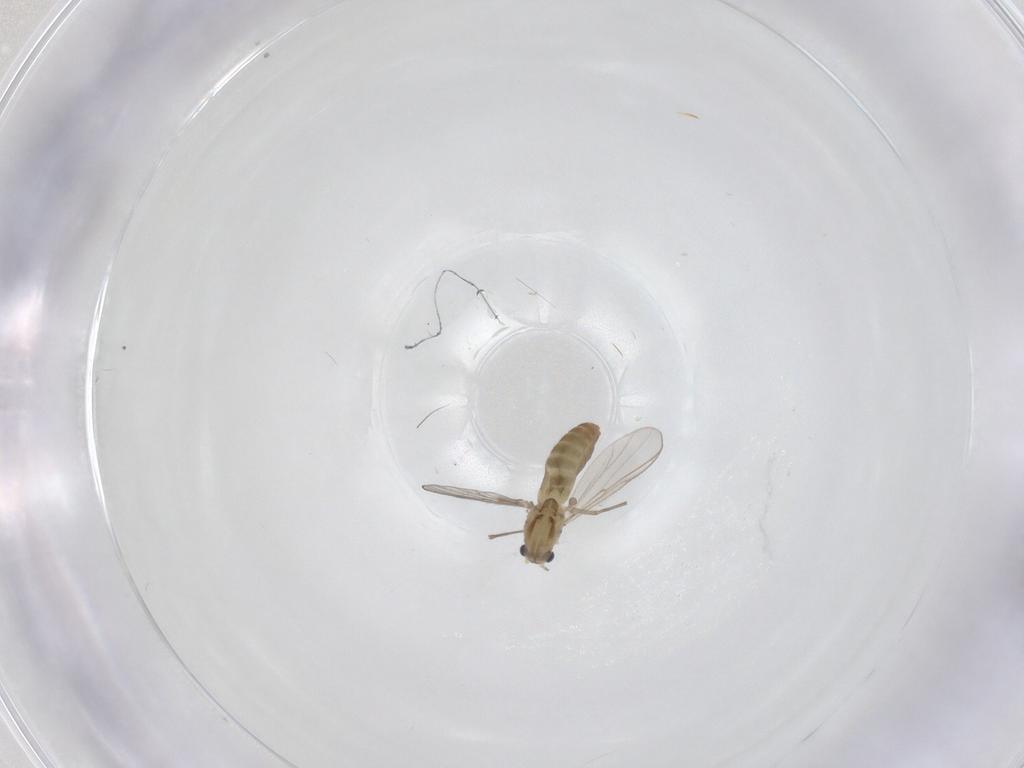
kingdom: Animalia
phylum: Arthropoda
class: Insecta
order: Diptera
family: Chironomidae
